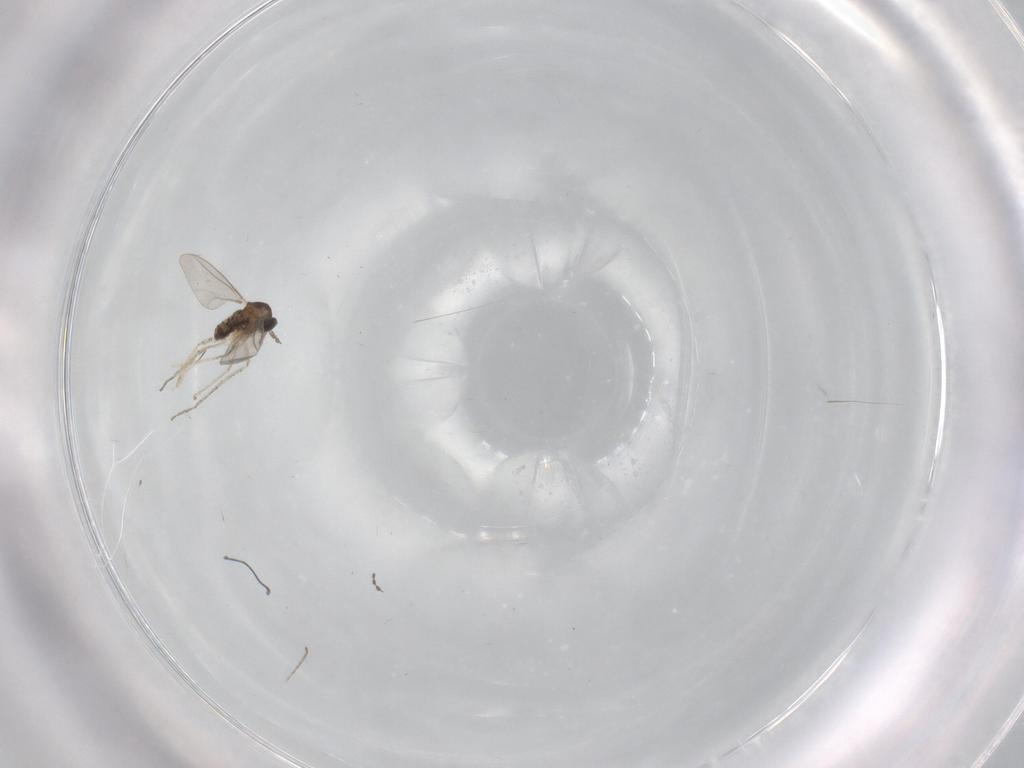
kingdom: Animalia
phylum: Arthropoda
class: Insecta
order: Diptera
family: Cecidomyiidae
